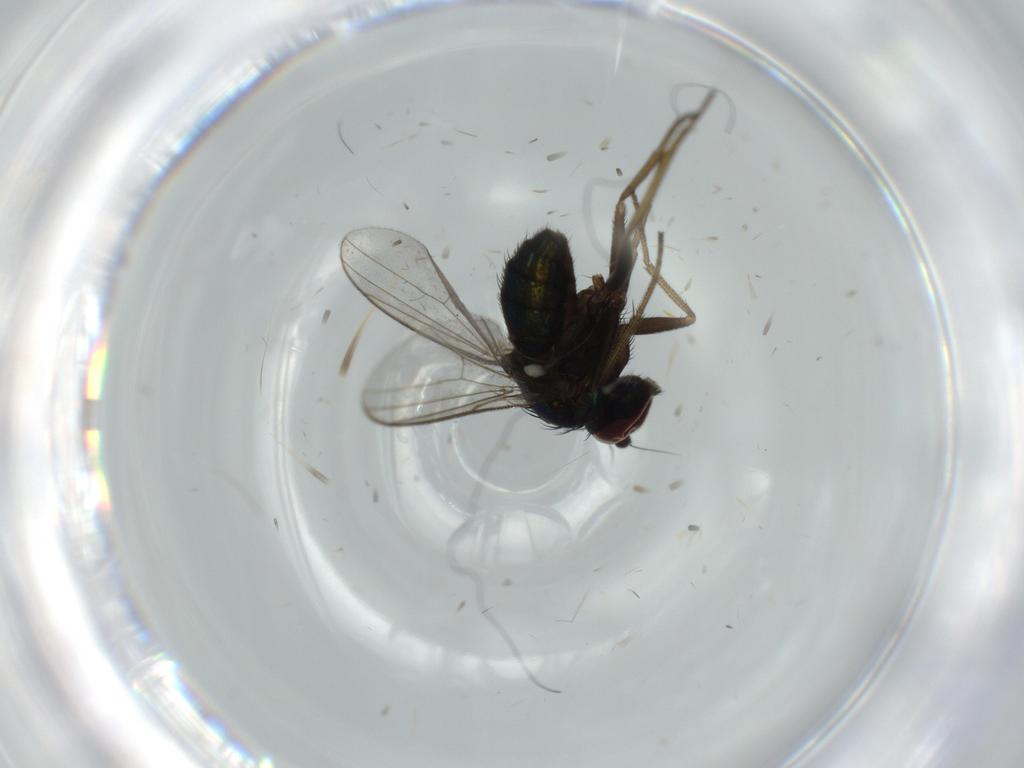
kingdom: Animalia
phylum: Arthropoda
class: Insecta
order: Diptera
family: Dolichopodidae
